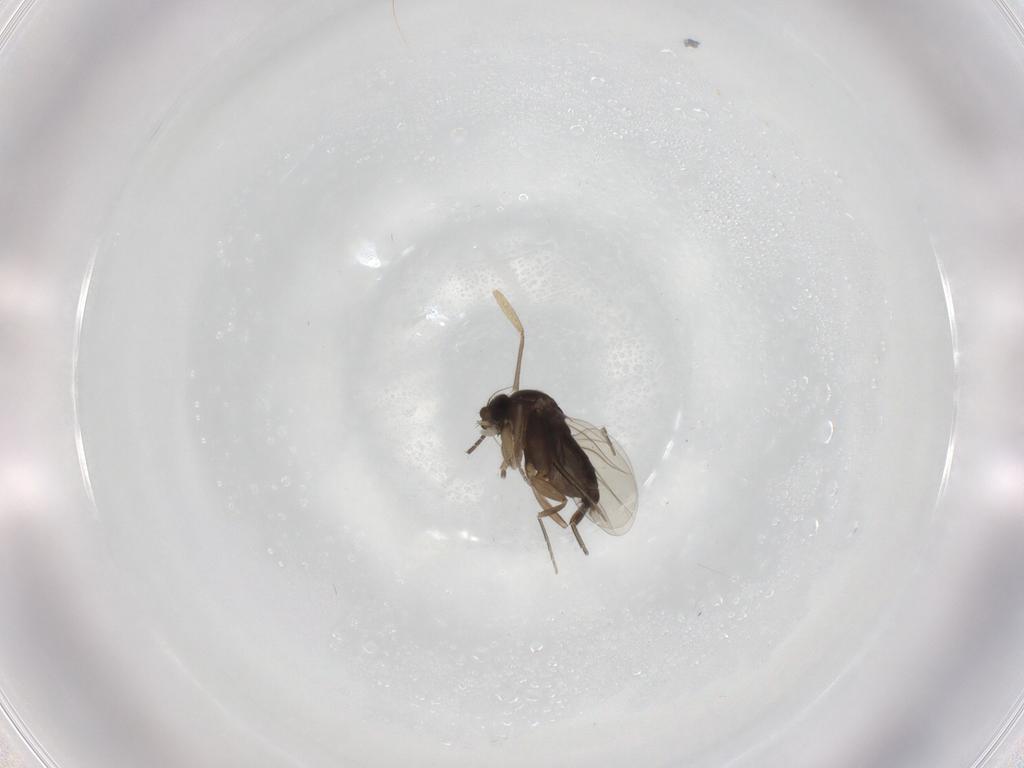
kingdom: Animalia
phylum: Arthropoda
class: Insecta
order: Diptera
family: Sciaridae
